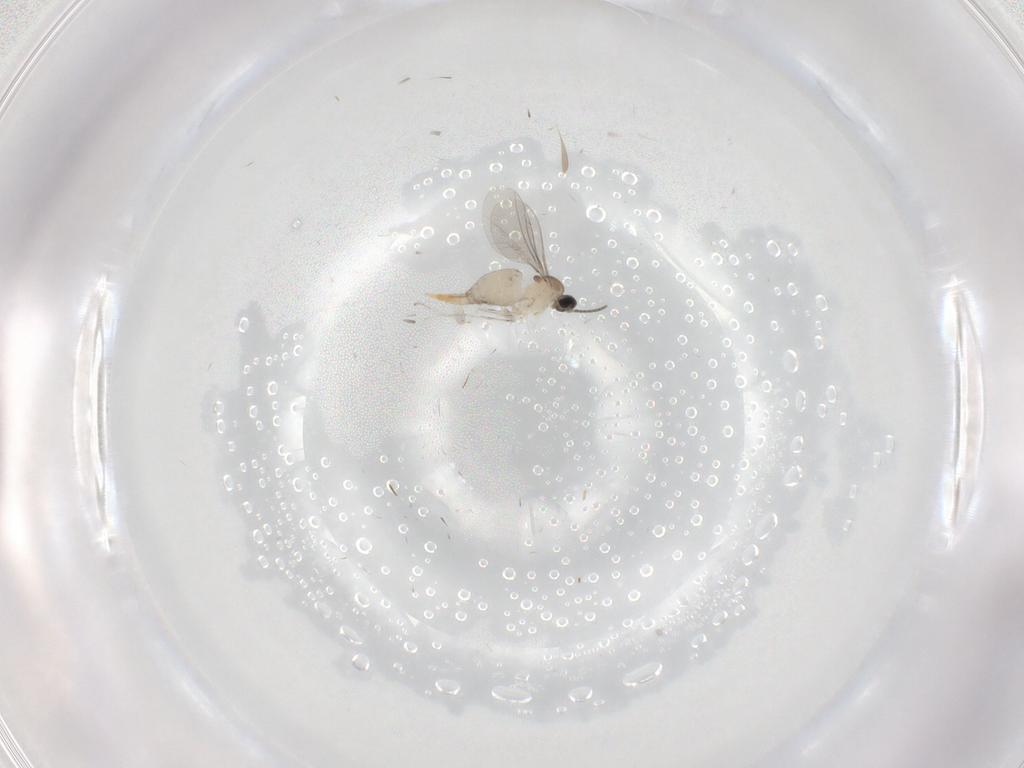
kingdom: Animalia
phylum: Arthropoda
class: Insecta
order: Diptera
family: Cecidomyiidae
